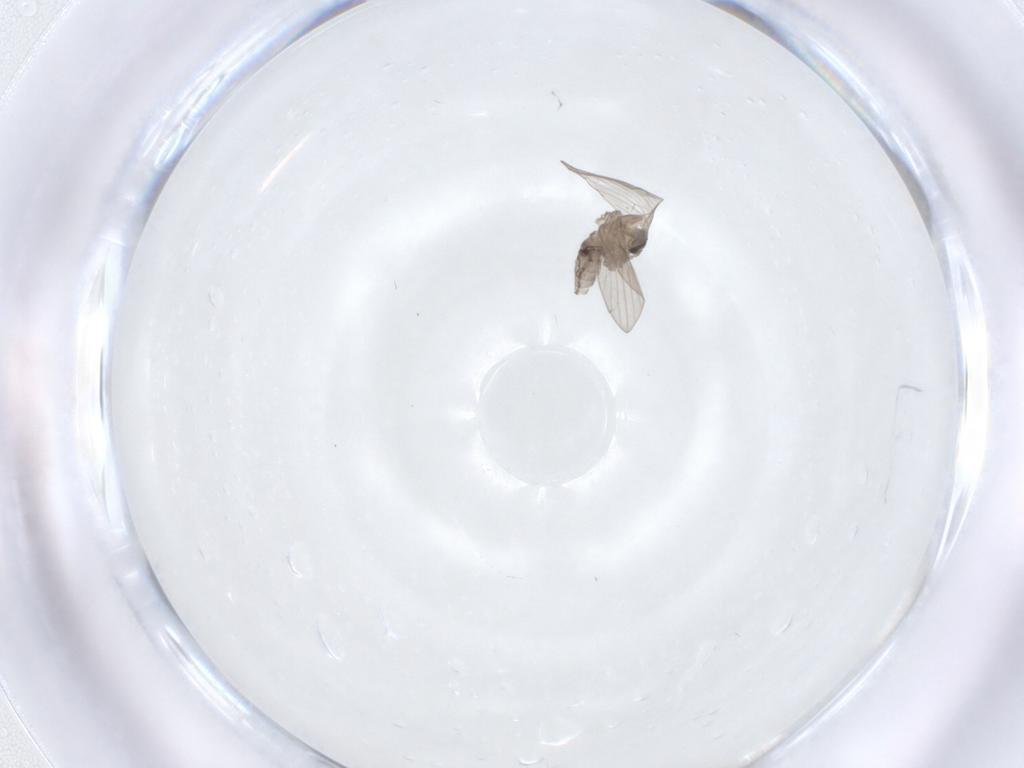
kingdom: Animalia
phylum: Arthropoda
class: Insecta
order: Diptera
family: Psychodidae
